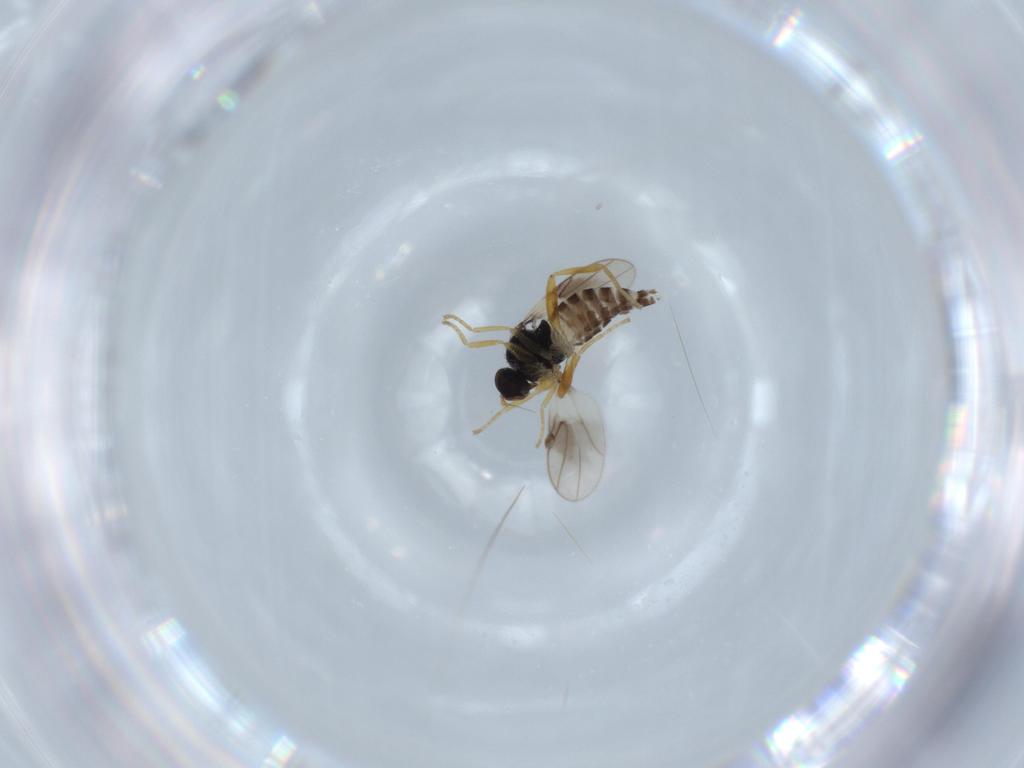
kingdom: Animalia
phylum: Arthropoda
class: Insecta
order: Diptera
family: Hybotidae
